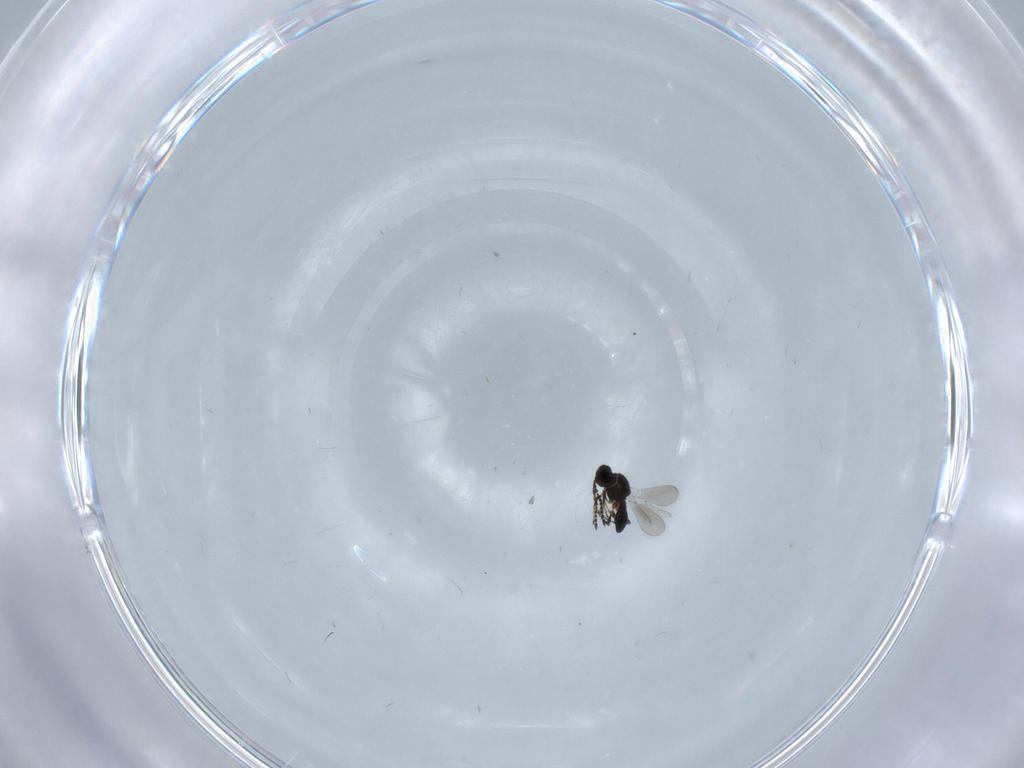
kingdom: Animalia
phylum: Arthropoda
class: Insecta
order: Hymenoptera
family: Platygastridae
